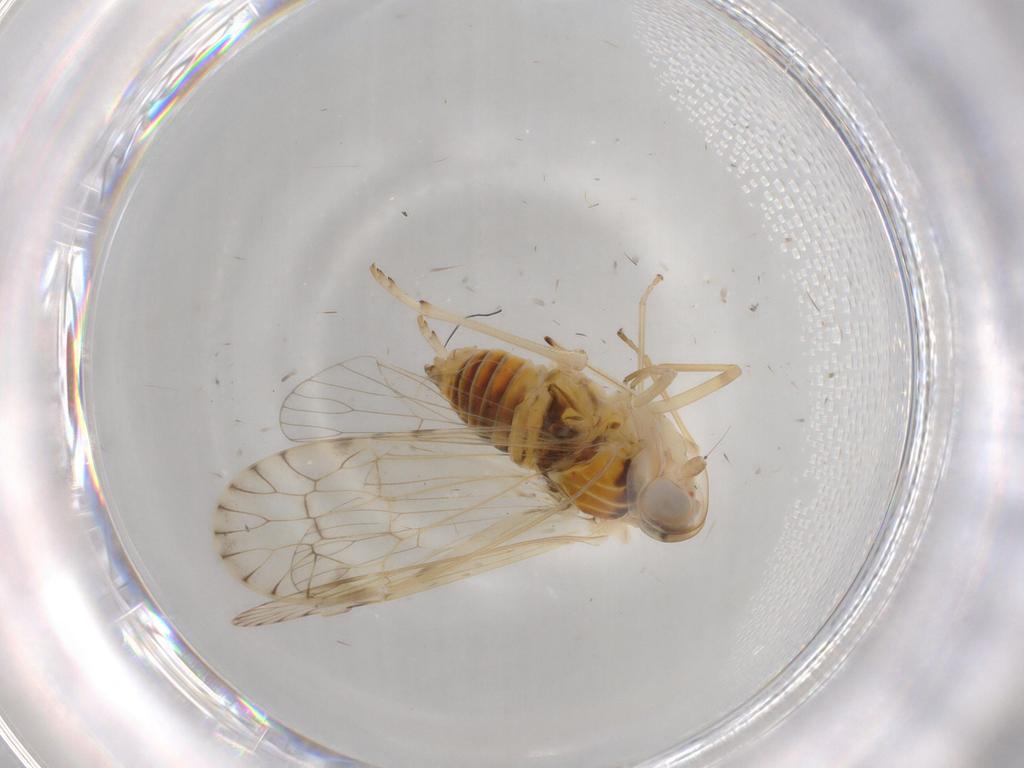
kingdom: Animalia
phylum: Arthropoda
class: Insecta
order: Hemiptera
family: Kinnaridae
